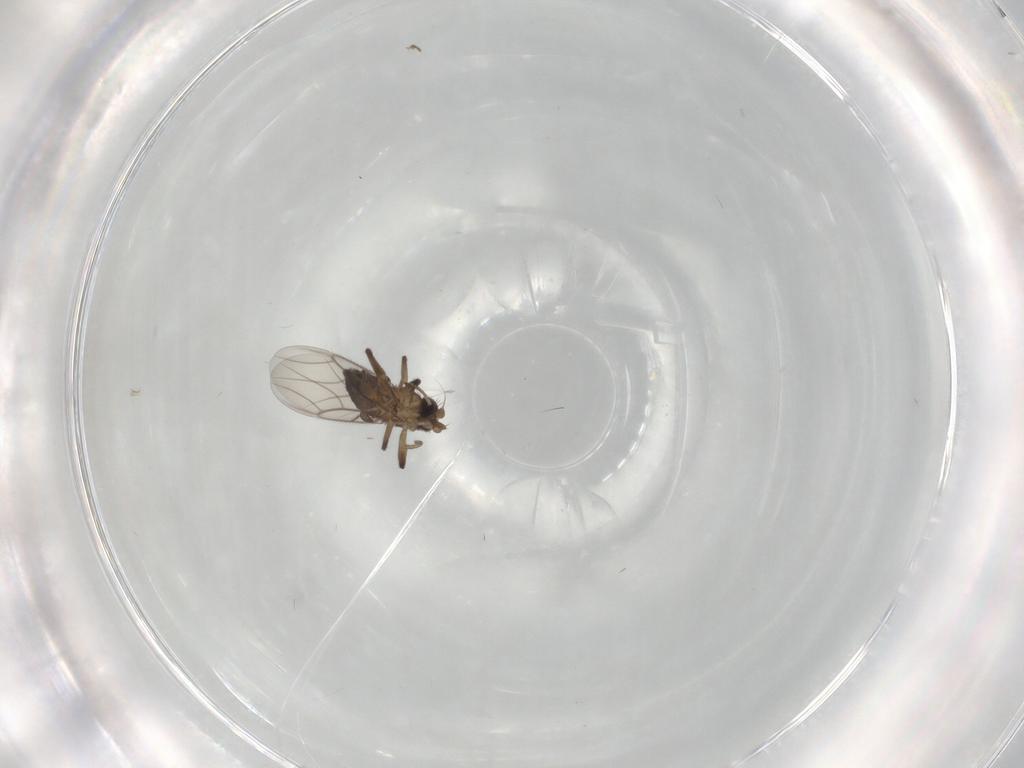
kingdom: Animalia
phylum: Arthropoda
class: Insecta
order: Diptera
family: Phoridae
